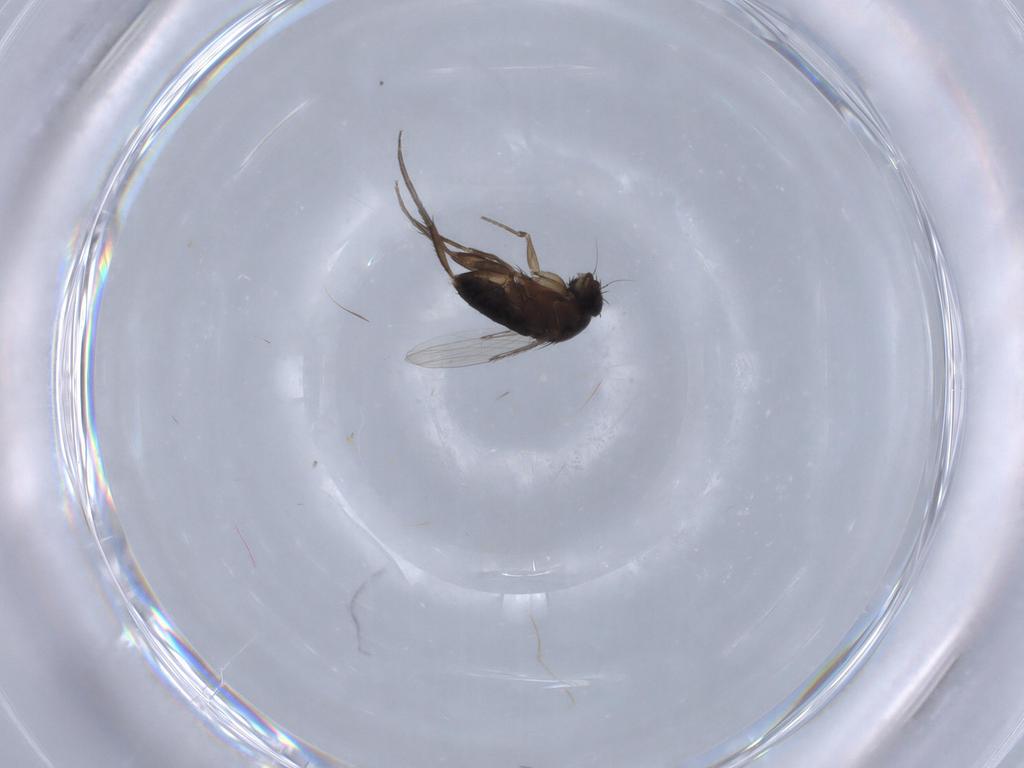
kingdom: Animalia
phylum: Arthropoda
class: Insecta
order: Diptera
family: Phoridae
